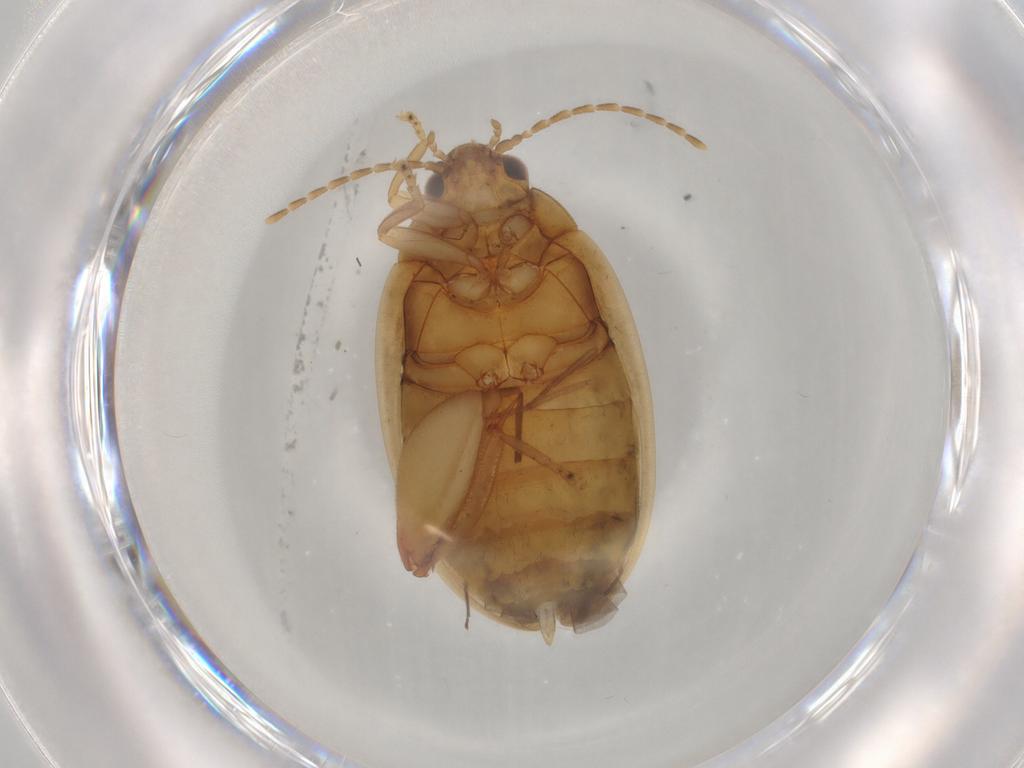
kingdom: Animalia
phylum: Arthropoda
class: Insecta
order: Coleoptera
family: Scirtidae
